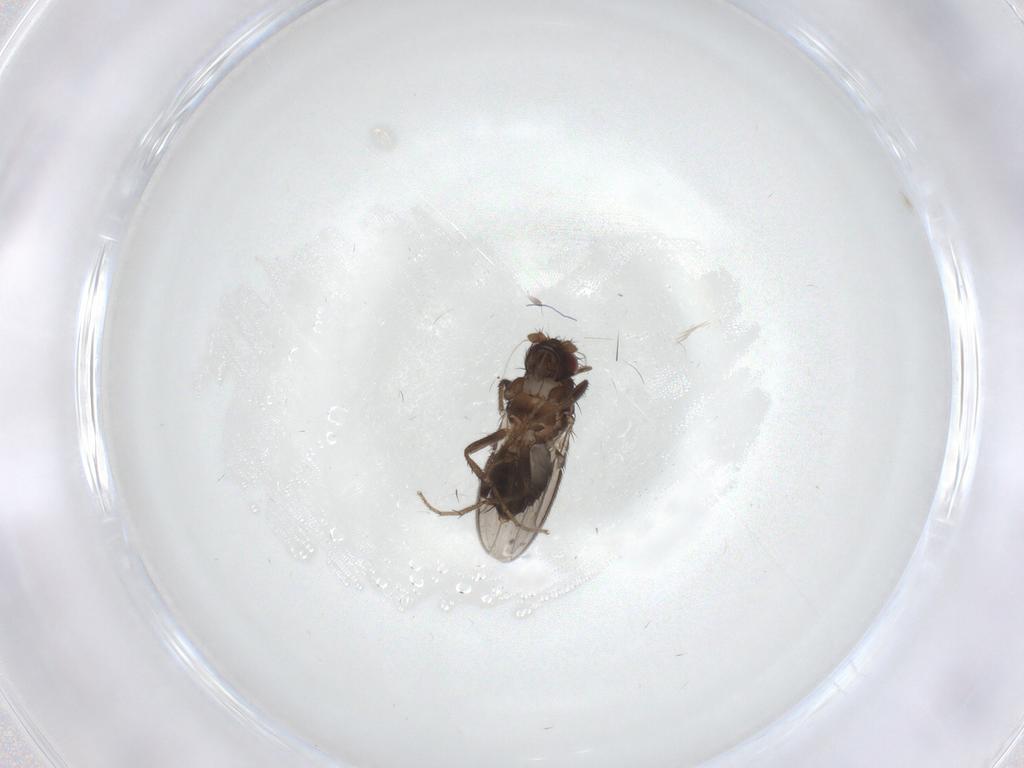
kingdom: Animalia
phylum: Arthropoda
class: Insecta
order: Diptera
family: Sphaeroceridae
